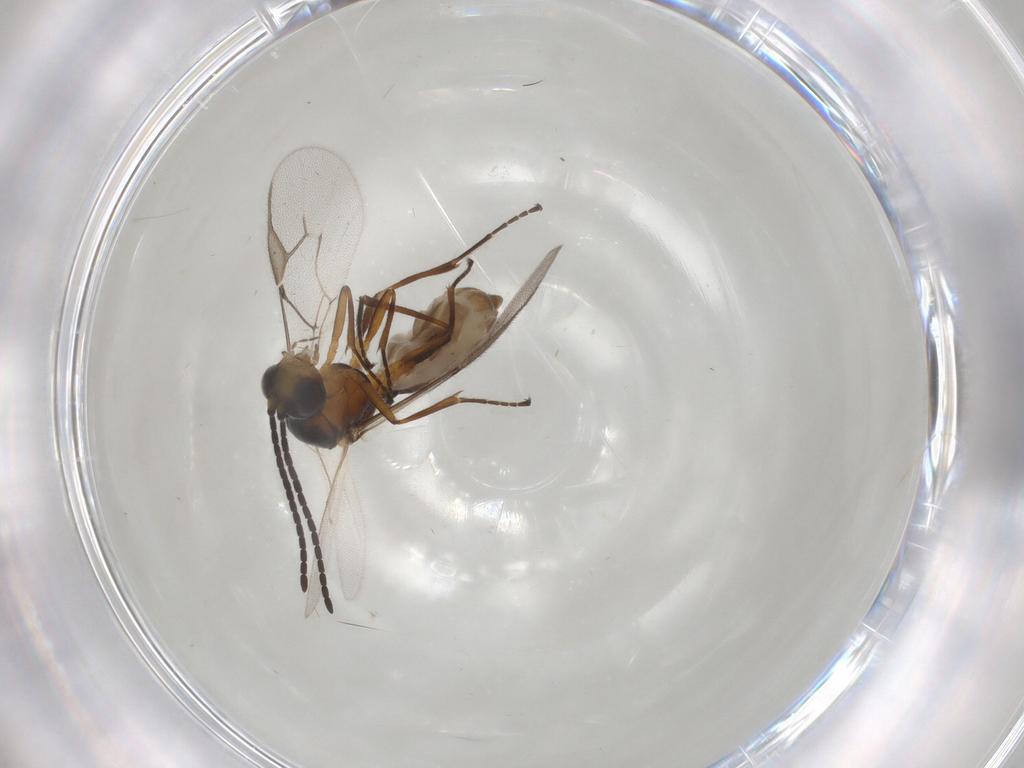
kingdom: Animalia
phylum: Arthropoda
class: Insecta
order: Hymenoptera
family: Braconidae
